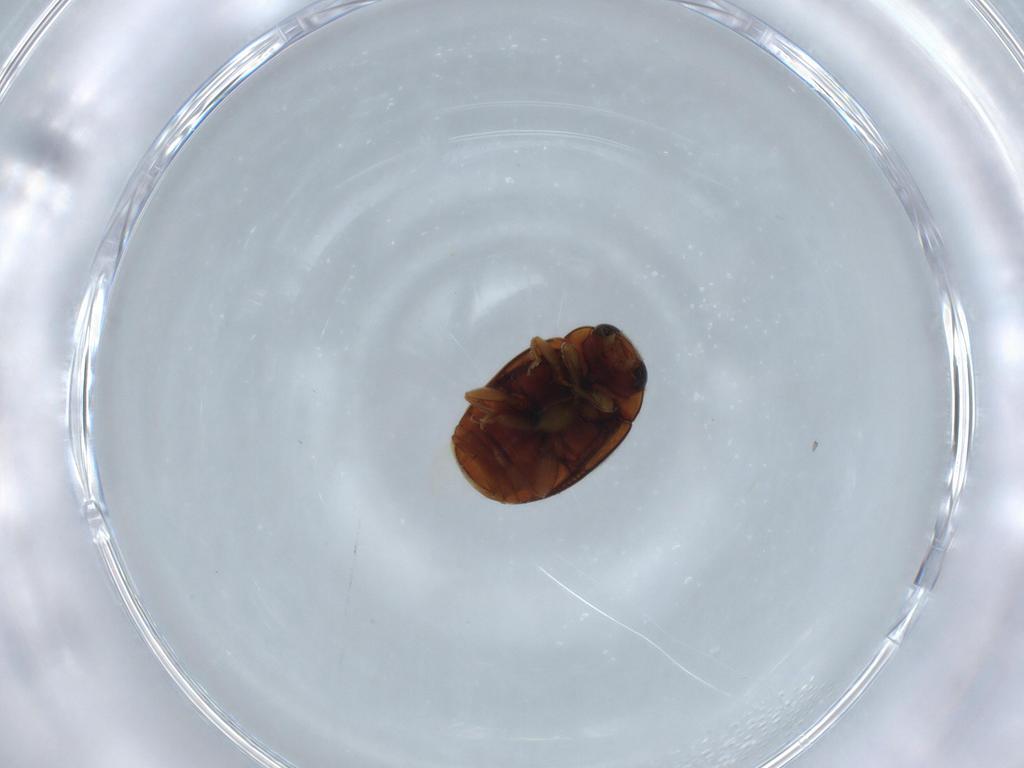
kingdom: Animalia
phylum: Arthropoda
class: Insecta
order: Coleoptera
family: Coccinellidae
